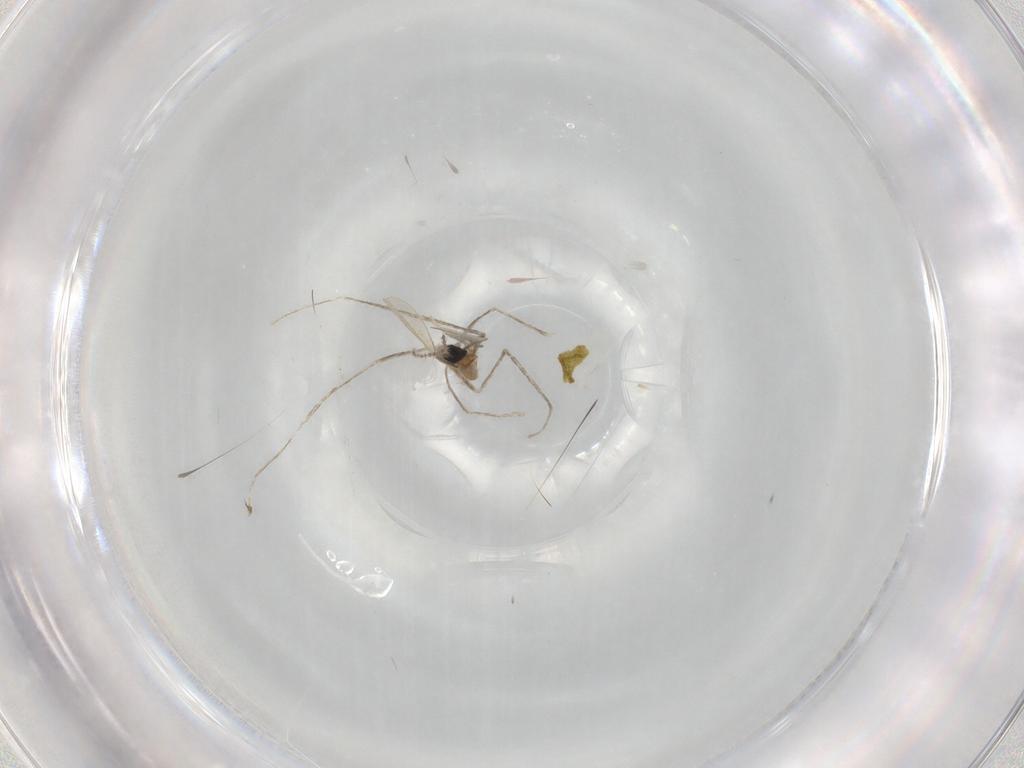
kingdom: Animalia
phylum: Arthropoda
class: Insecta
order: Diptera
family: Cecidomyiidae
